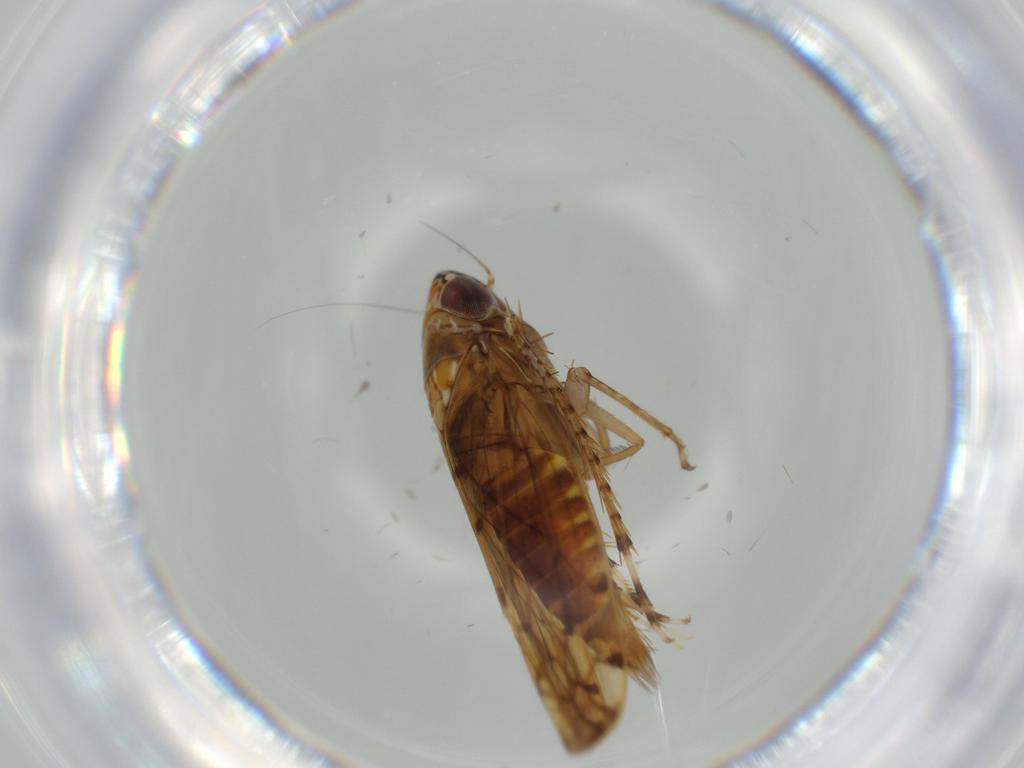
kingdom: Animalia
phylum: Arthropoda
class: Insecta
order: Hemiptera
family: Cicadellidae
